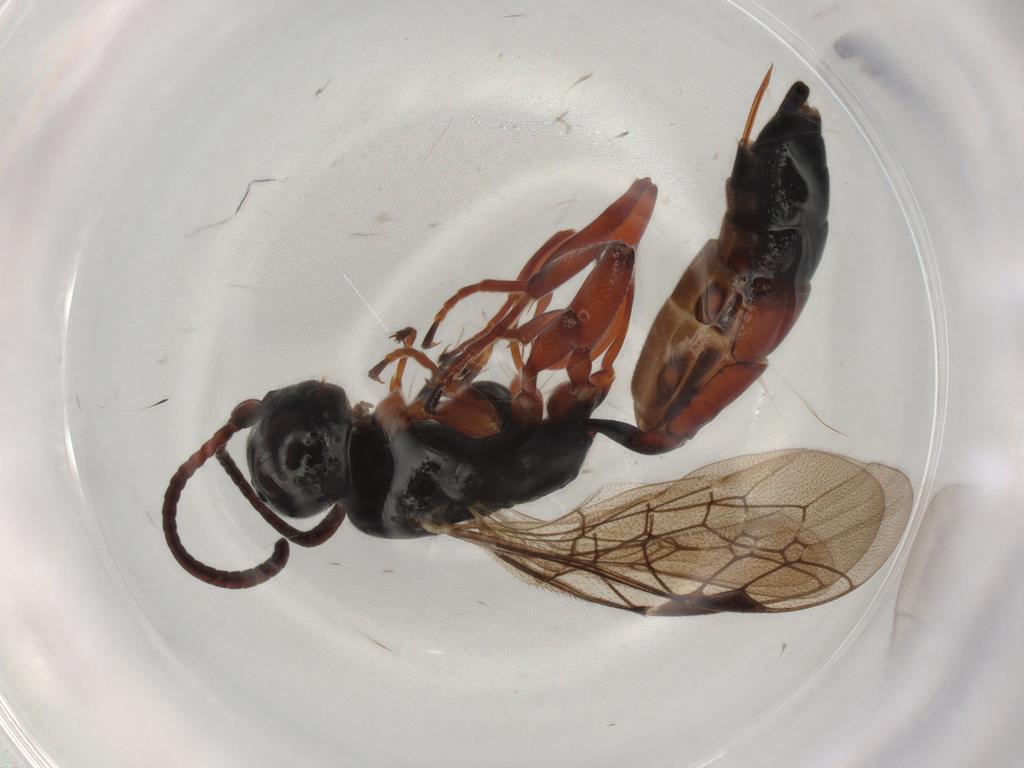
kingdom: Animalia
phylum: Arthropoda
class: Insecta
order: Hymenoptera
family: Ichneumonidae
